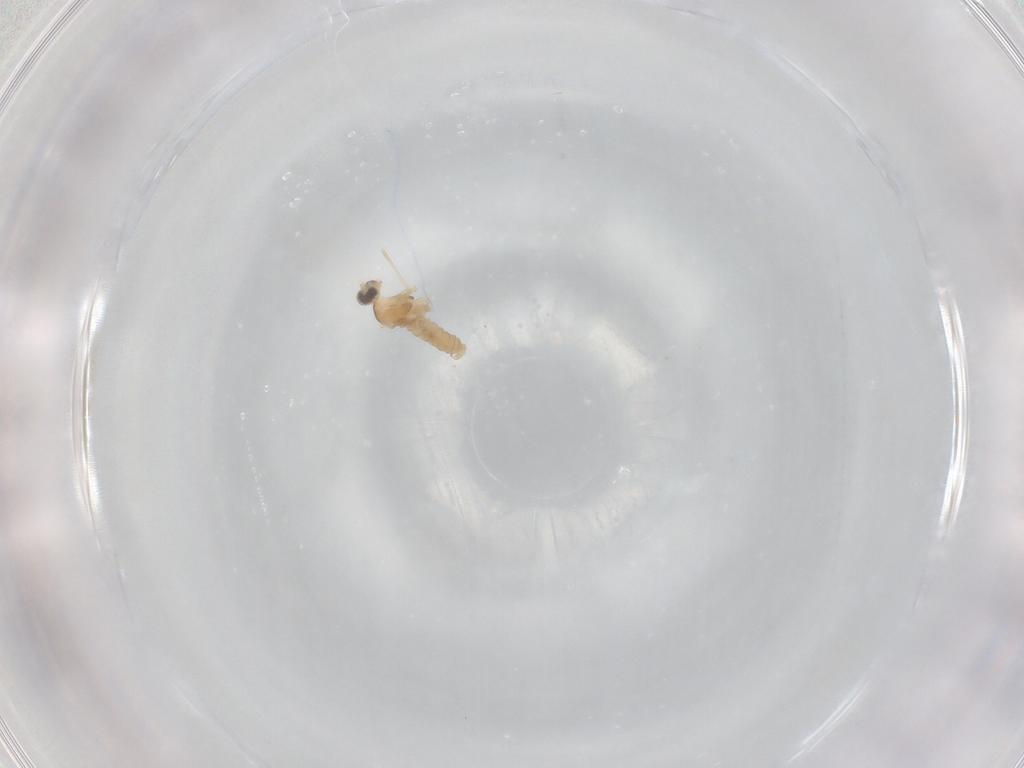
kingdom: Animalia
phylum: Arthropoda
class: Insecta
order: Diptera
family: Cecidomyiidae
